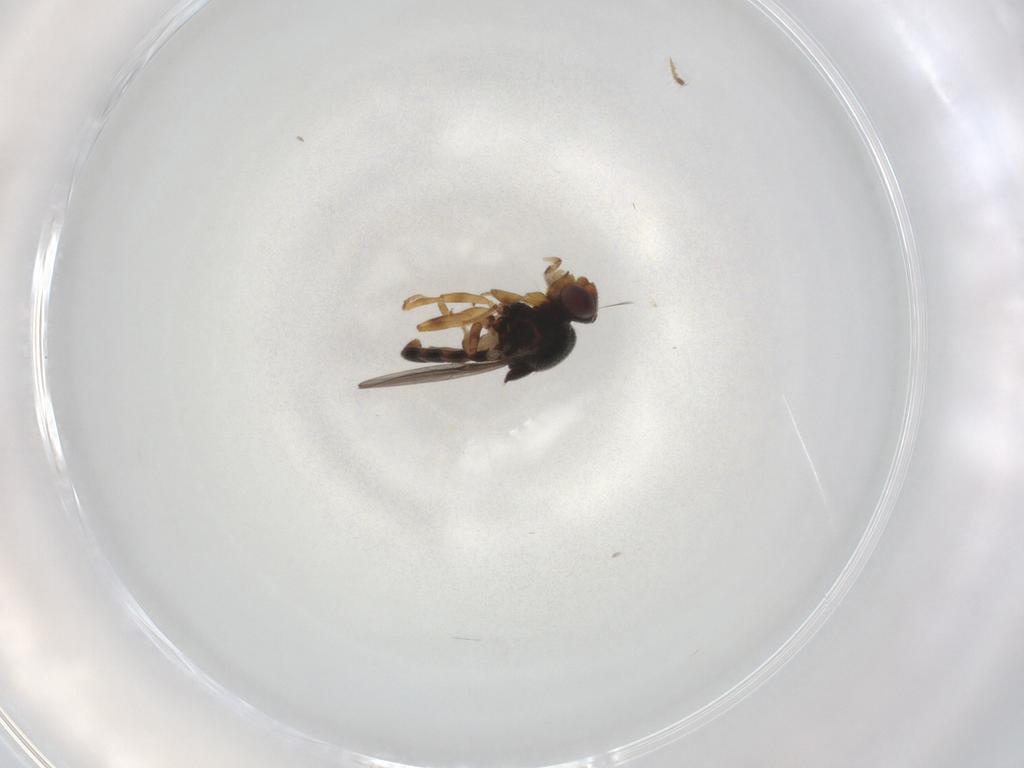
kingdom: Animalia
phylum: Arthropoda
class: Insecta
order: Diptera
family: Chloropidae
